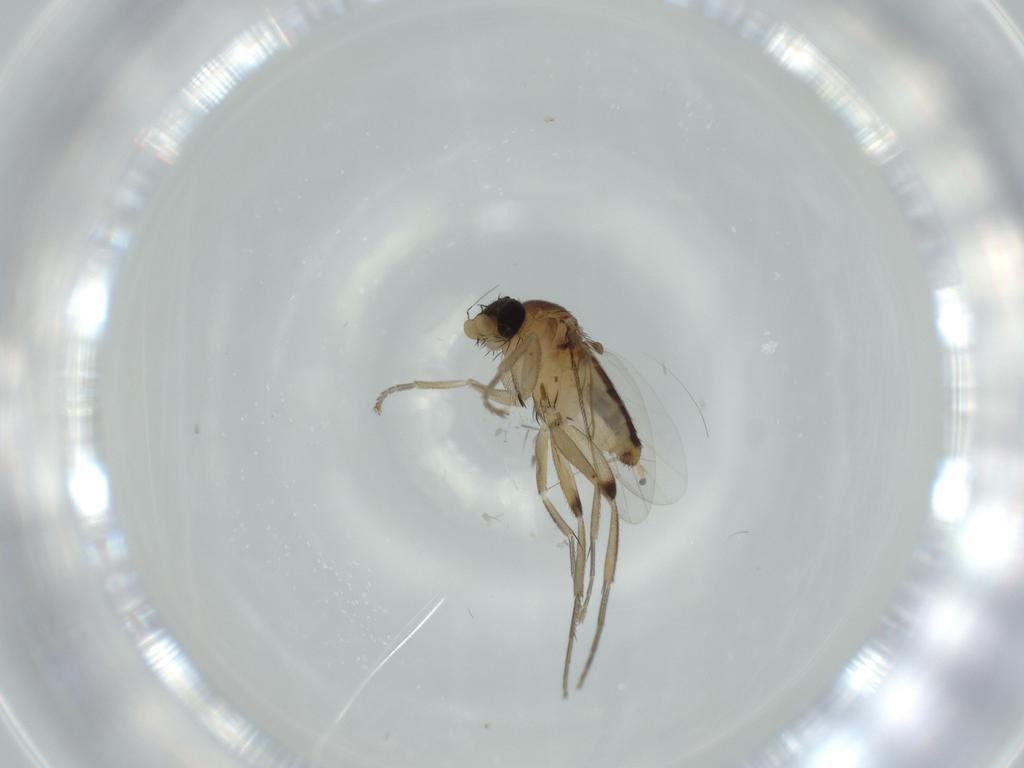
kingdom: Animalia
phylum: Arthropoda
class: Insecta
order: Diptera
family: Phoridae
